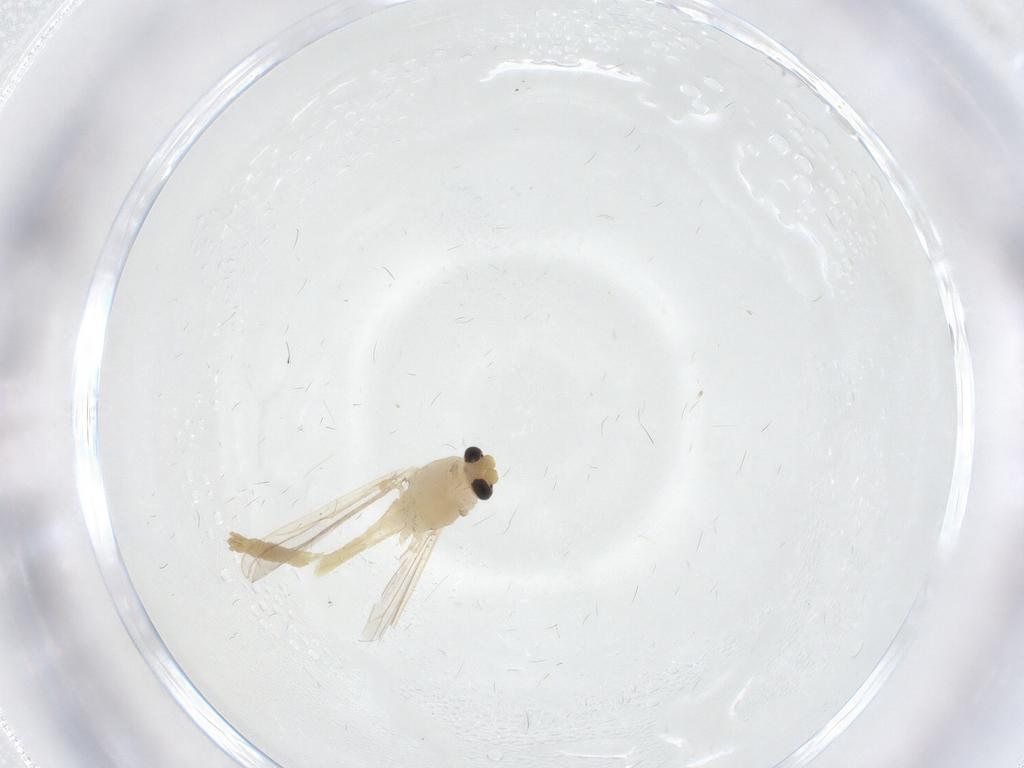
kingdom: Animalia
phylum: Arthropoda
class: Insecta
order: Diptera
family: Chironomidae
